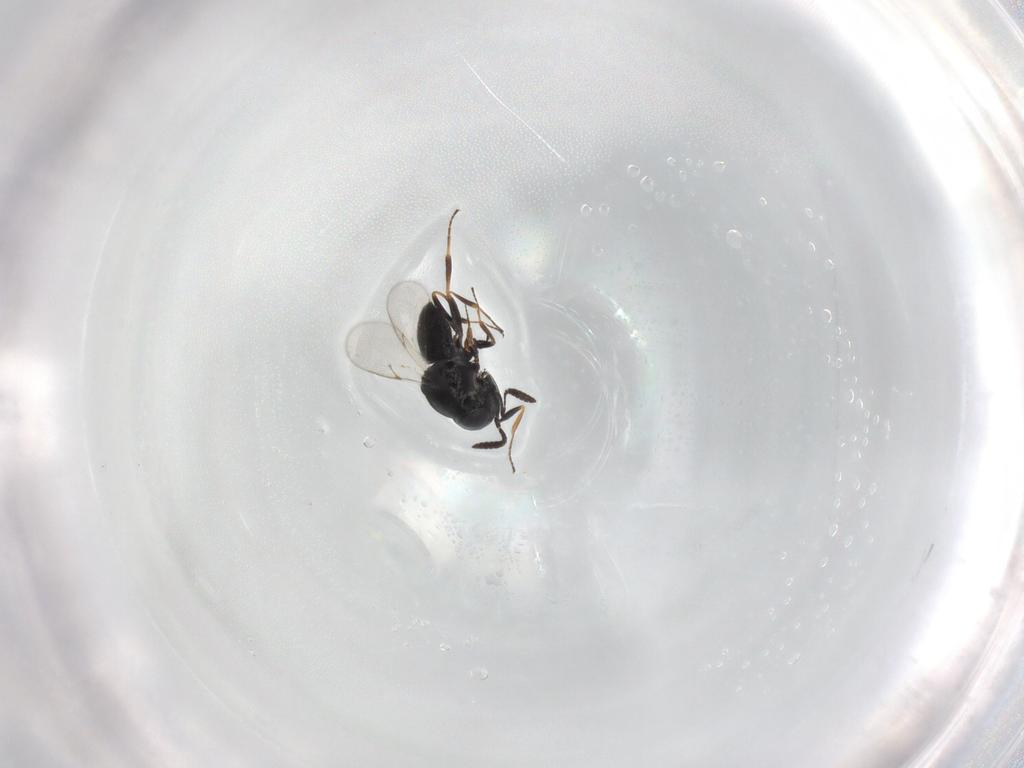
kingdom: Animalia
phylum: Arthropoda
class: Insecta
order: Hymenoptera
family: Scelionidae
